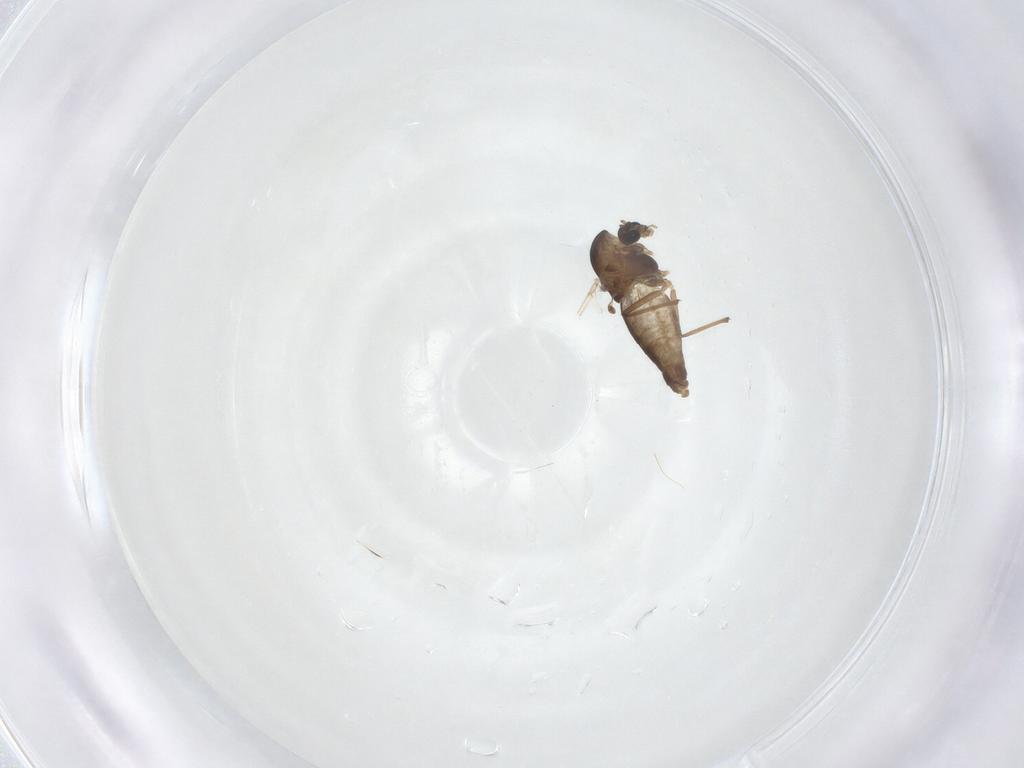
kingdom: Animalia
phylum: Arthropoda
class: Insecta
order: Diptera
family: Chironomidae
